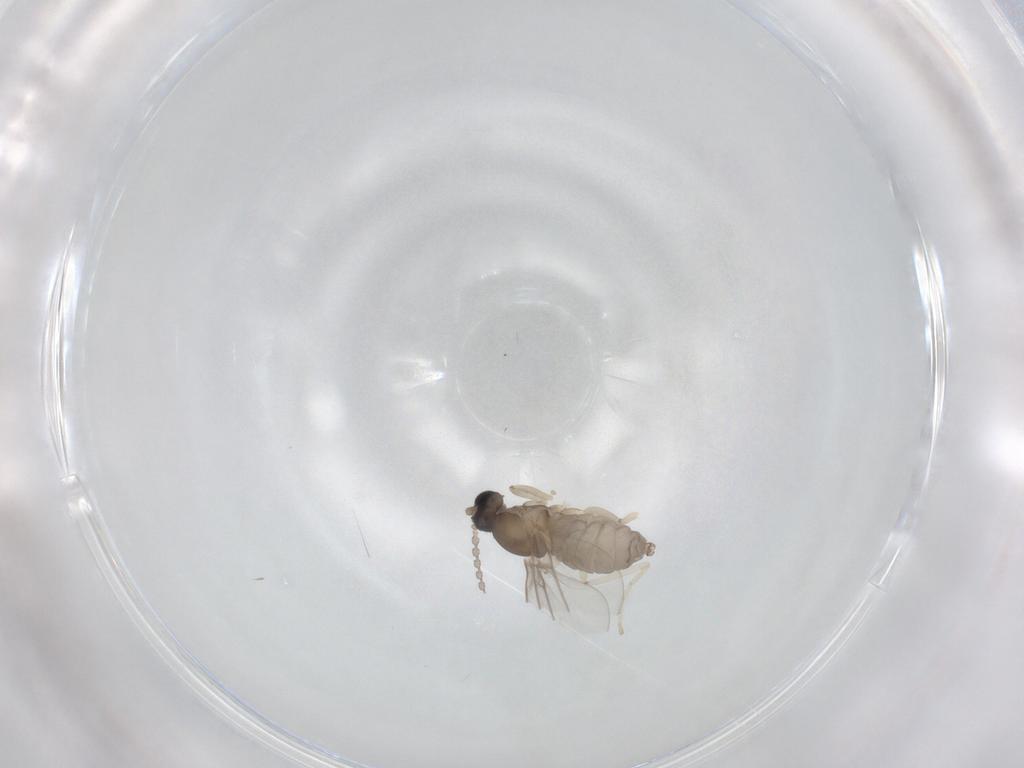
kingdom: Animalia
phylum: Arthropoda
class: Insecta
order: Diptera
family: Cecidomyiidae
